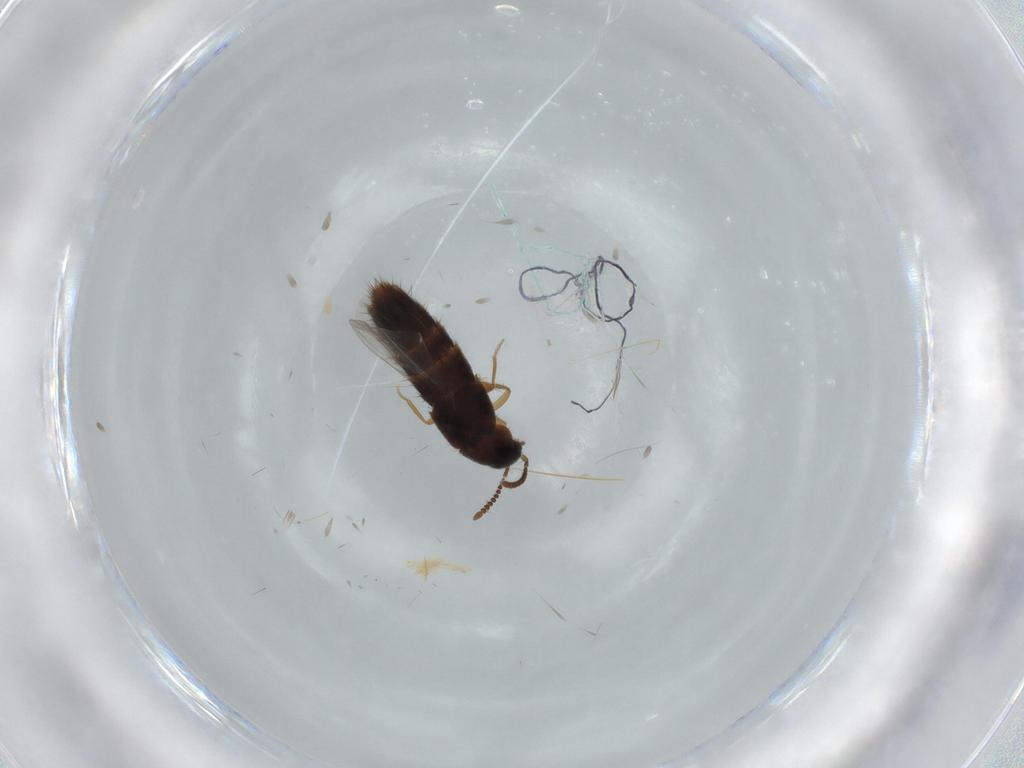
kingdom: Animalia
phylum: Arthropoda
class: Insecta
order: Coleoptera
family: Staphylinidae
